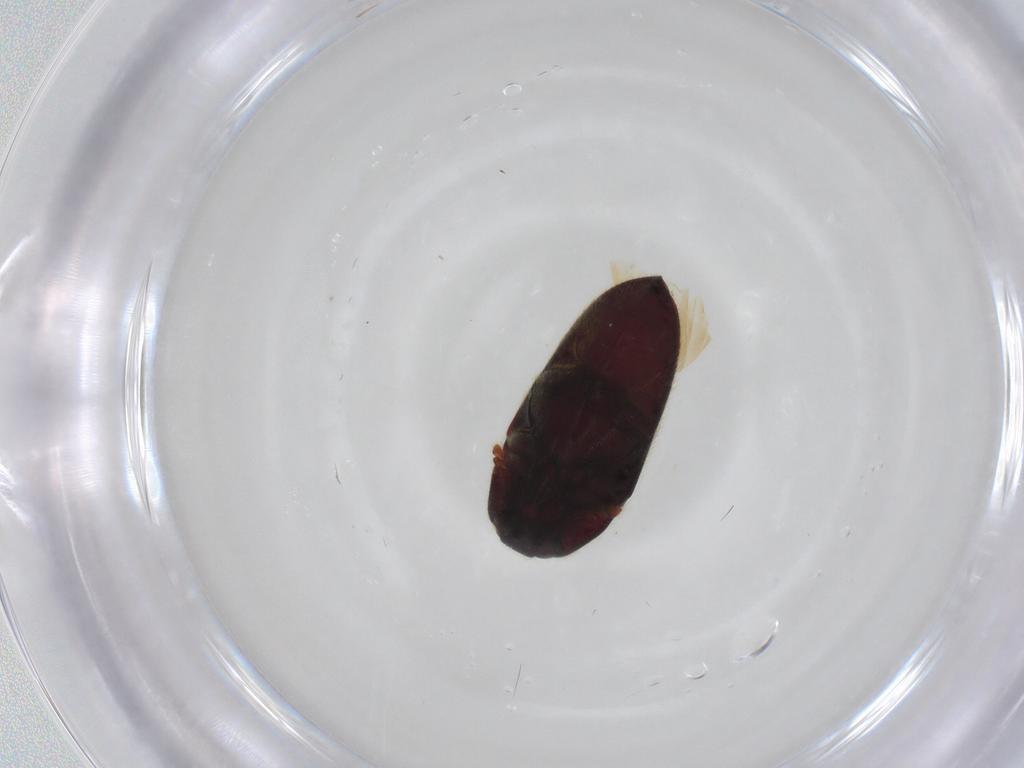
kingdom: Animalia
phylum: Arthropoda
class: Insecta
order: Coleoptera
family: Throscidae
